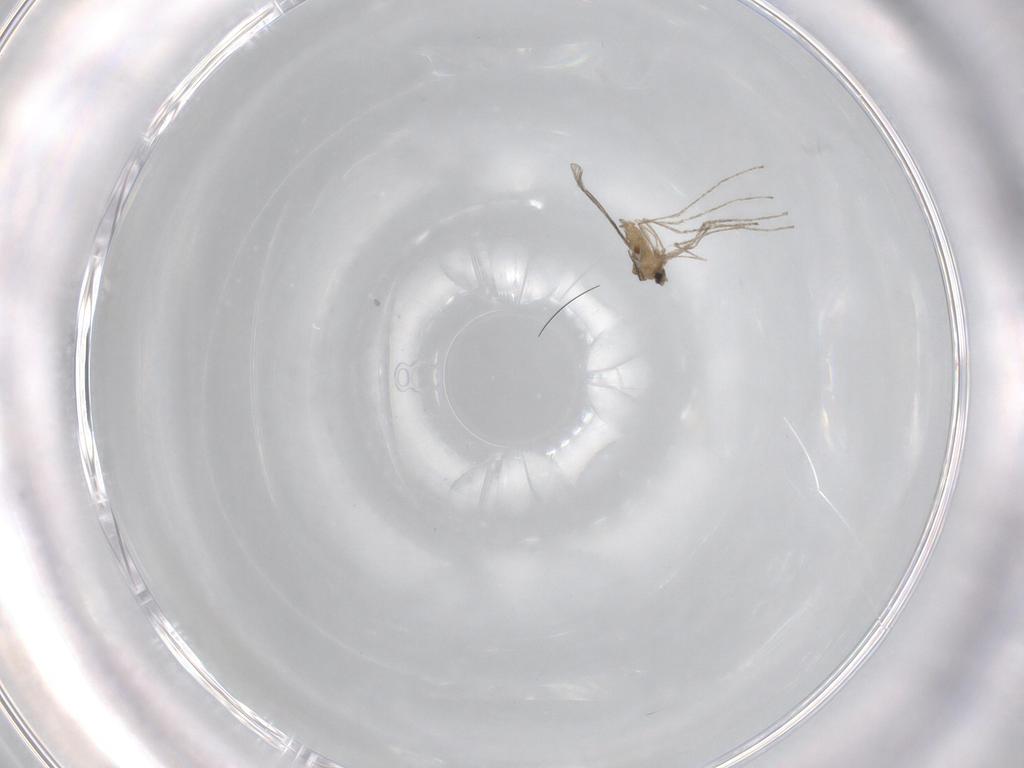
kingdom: Animalia
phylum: Arthropoda
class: Insecta
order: Diptera
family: Cecidomyiidae
